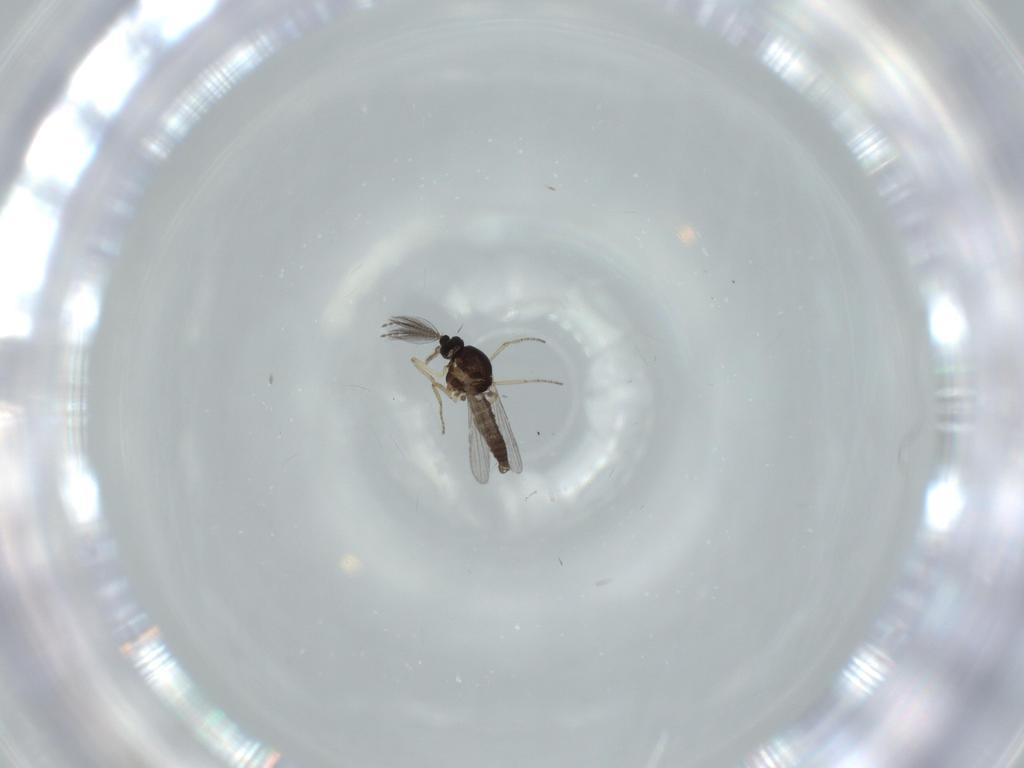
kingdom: Animalia
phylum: Arthropoda
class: Insecta
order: Diptera
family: Ceratopogonidae
